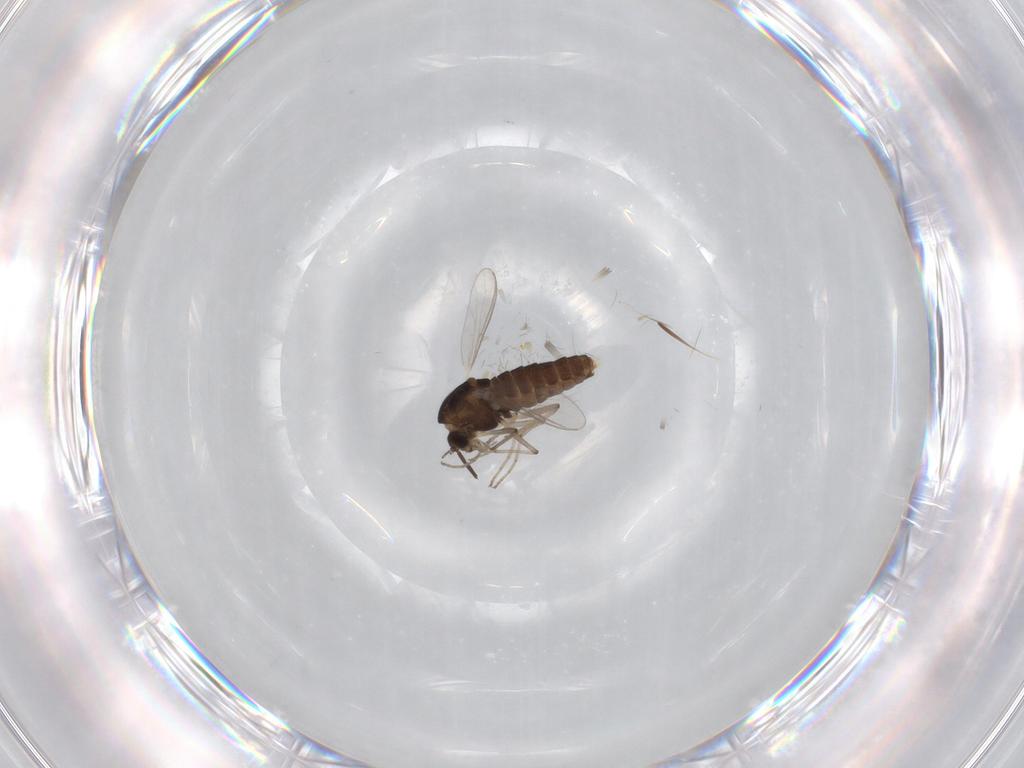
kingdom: Animalia
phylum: Arthropoda
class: Insecta
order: Diptera
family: Chironomidae
